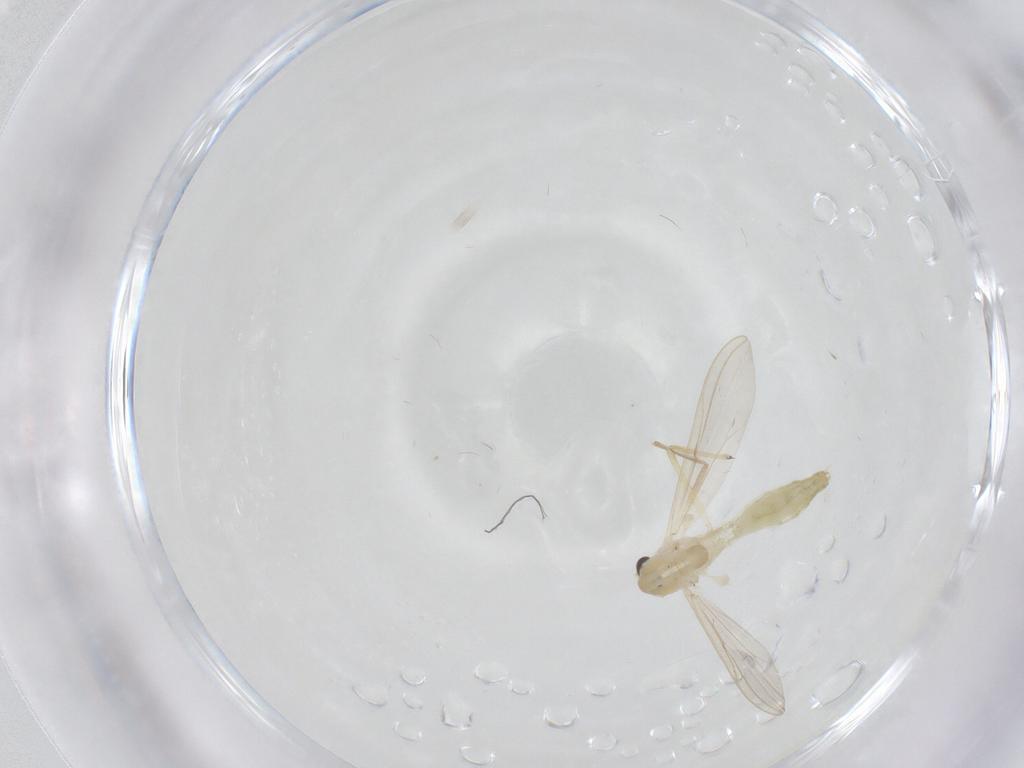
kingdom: Animalia
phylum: Arthropoda
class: Insecta
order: Diptera
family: Chironomidae
